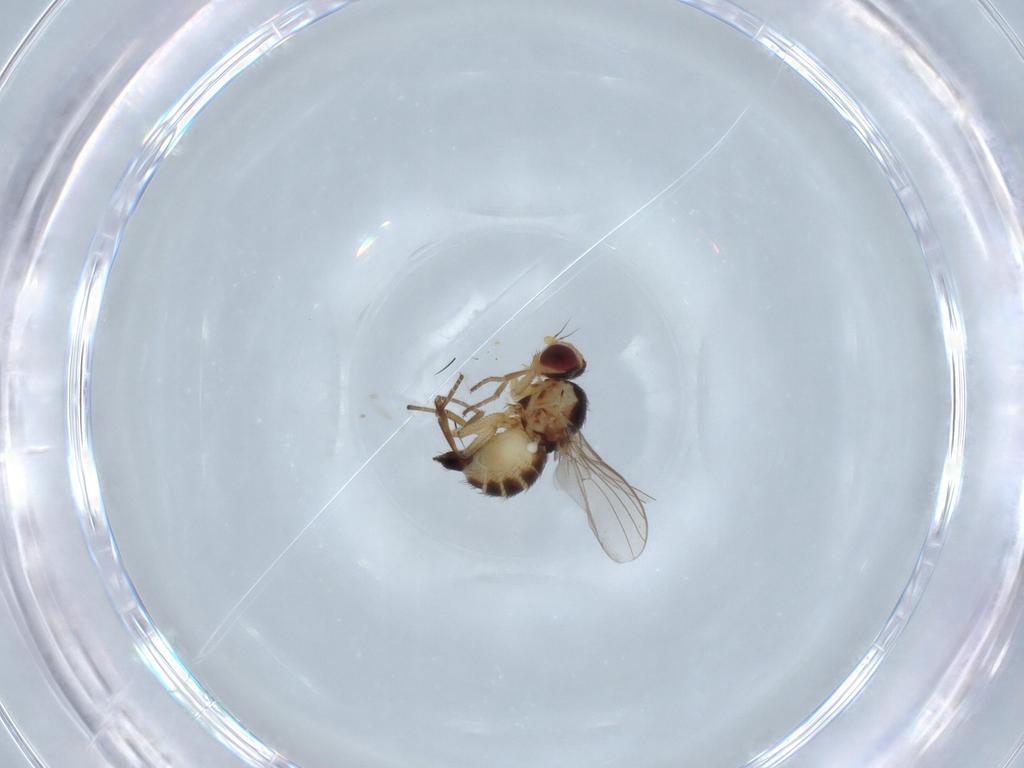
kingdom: Animalia
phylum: Arthropoda
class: Insecta
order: Diptera
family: Agromyzidae
